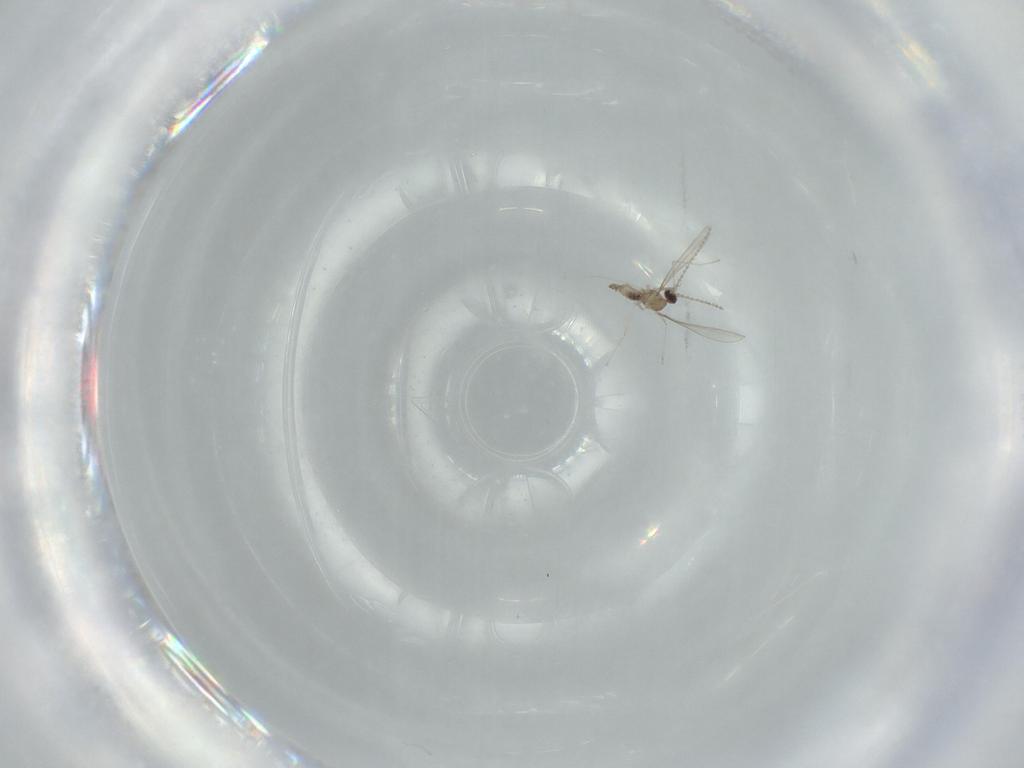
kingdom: Animalia
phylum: Arthropoda
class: Insecta
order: Diptera
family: Cecidomyiidae
